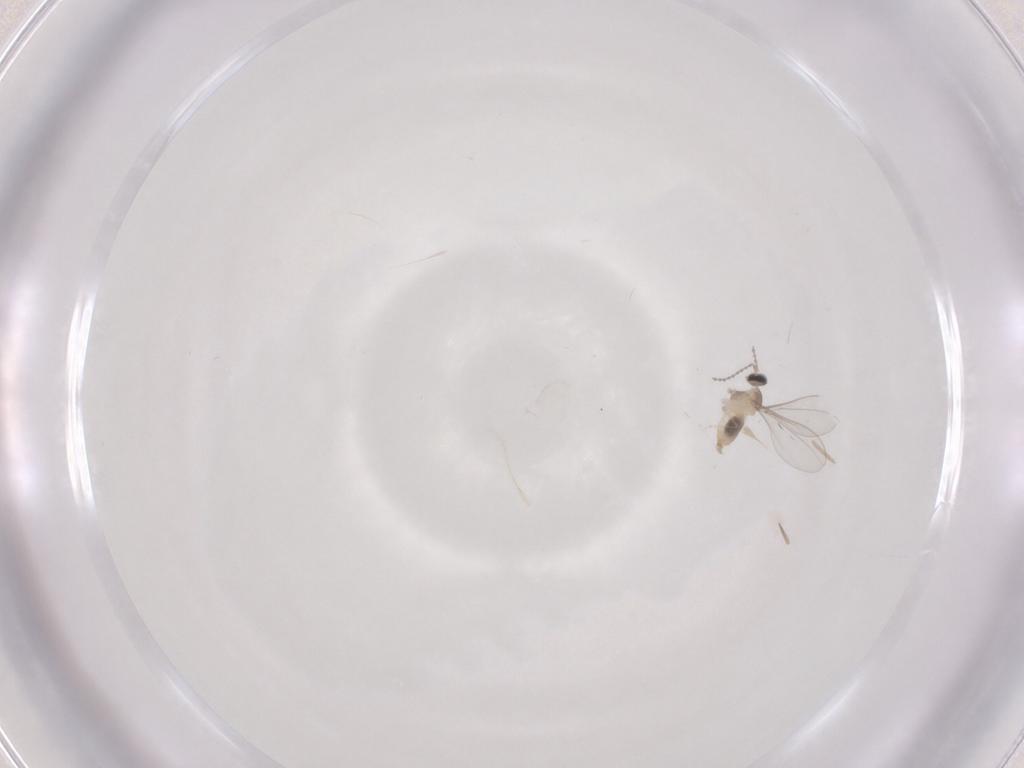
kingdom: Animalia
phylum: Arthropoda
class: Insecta
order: Diptera
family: Cecidomyiidae
